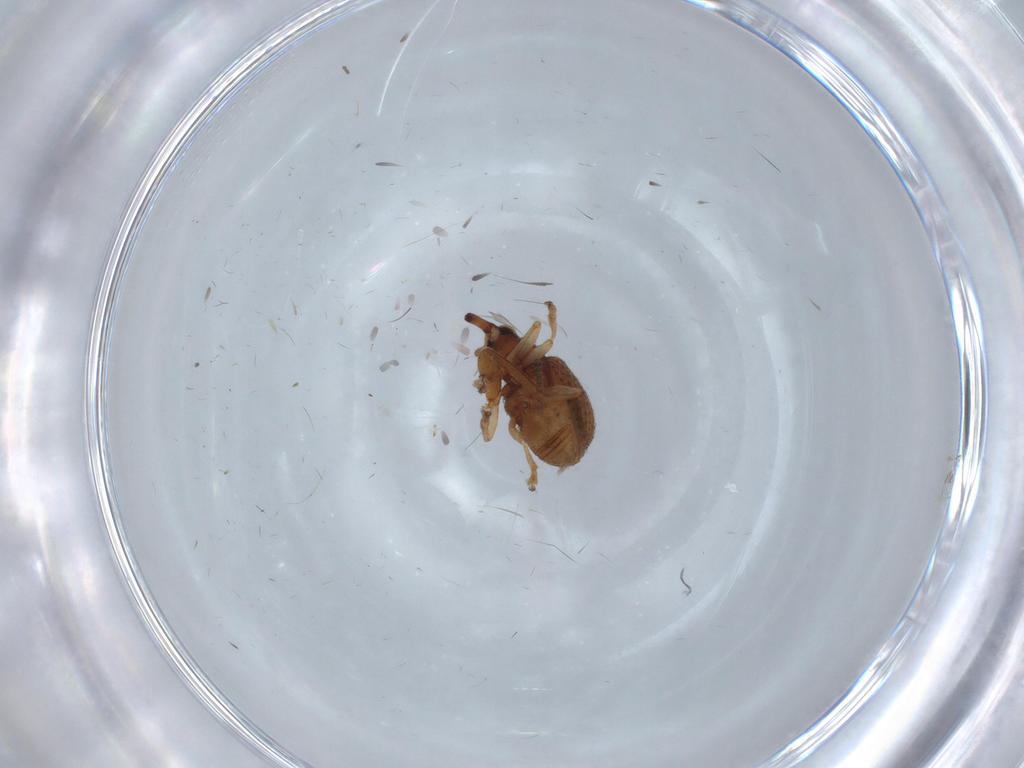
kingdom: Animalia
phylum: Arthropoda
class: Insecta
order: Coleoptera
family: Brentidae
